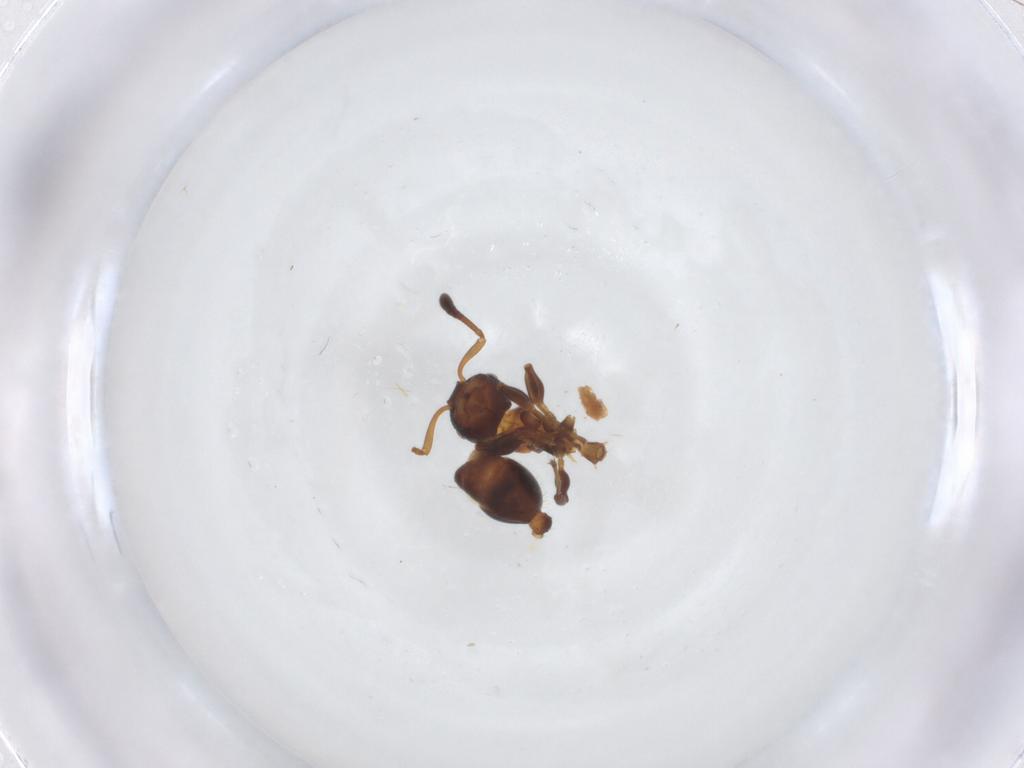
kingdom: Animalia
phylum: Arthropoda
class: Insecta
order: Hymenoptera
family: Formicidae
